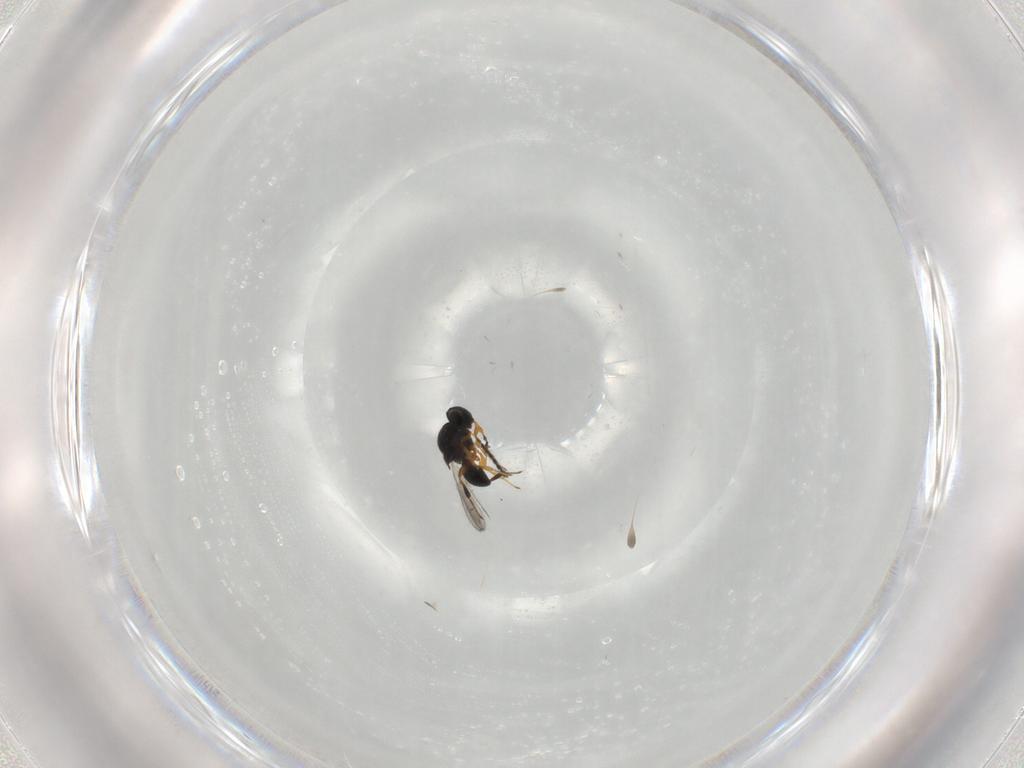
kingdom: Animalia
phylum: Arthropoda
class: Insecta
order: Hymenoptera
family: Platygastridae
